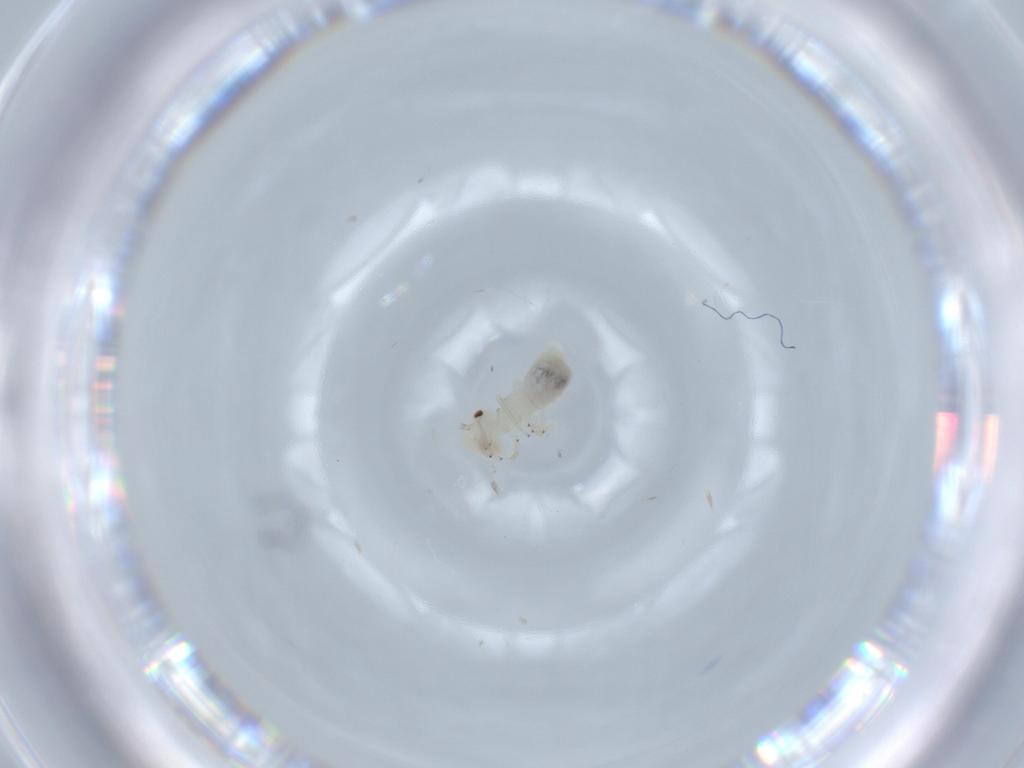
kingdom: Animalia
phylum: Arthropoda
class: Insecta
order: Psocodea
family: Caeciliusidae
